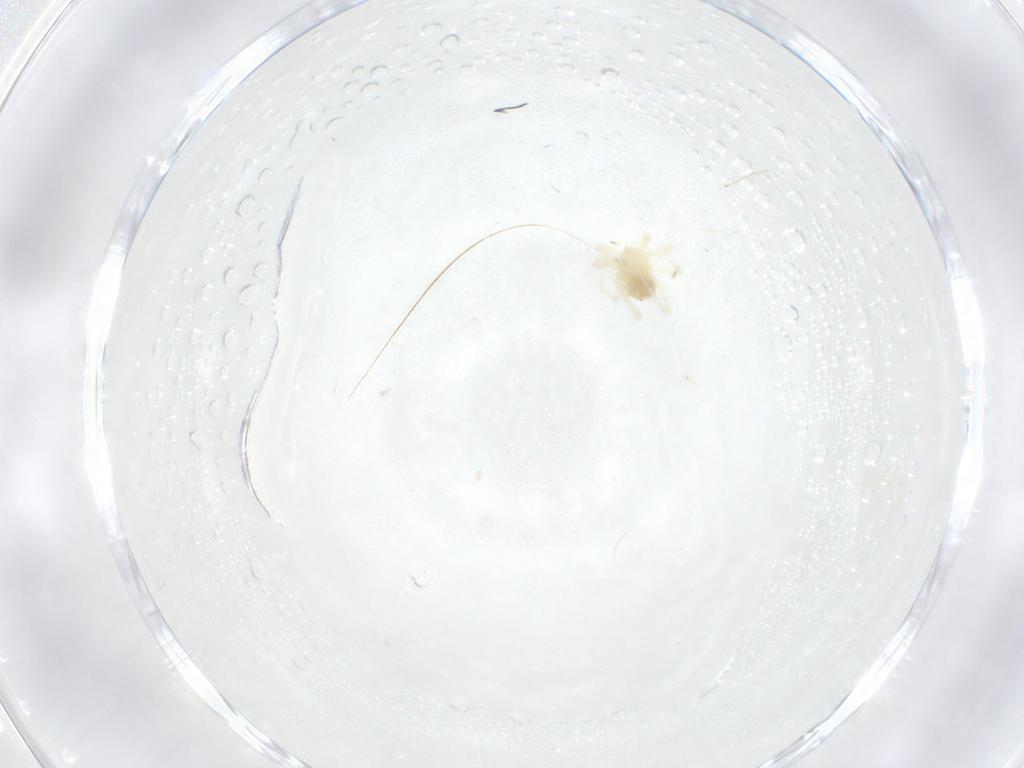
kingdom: Animalia
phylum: Arthropoda
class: Arachnida
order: Trombidiformes
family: Anystidae
